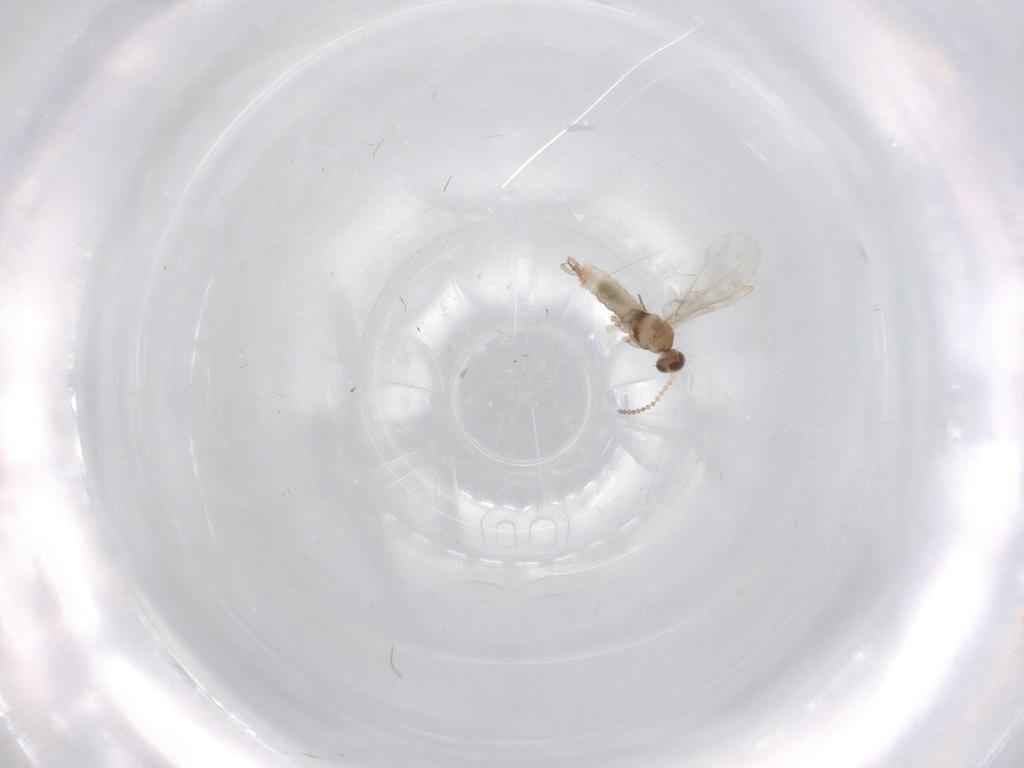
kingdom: Animalia
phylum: Arthropoda
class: Insecta
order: Diptera
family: Cecidomyiidae
